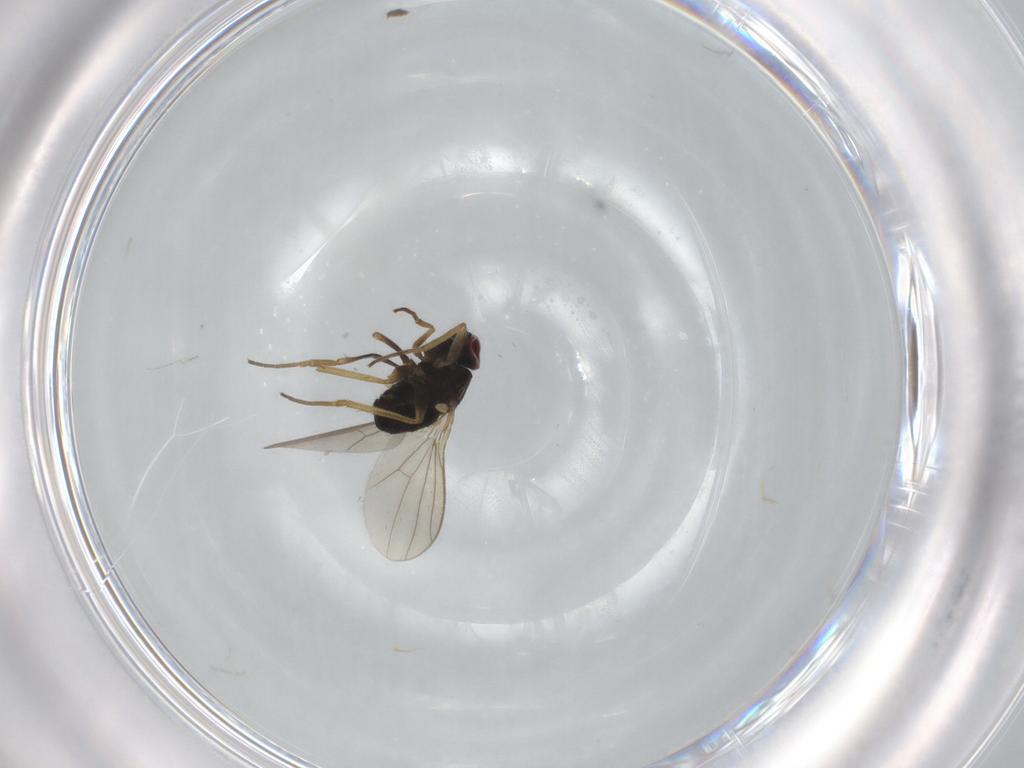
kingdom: Animalia
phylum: Arthropoda
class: Insecta
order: Diptera
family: Dolichopodidae
